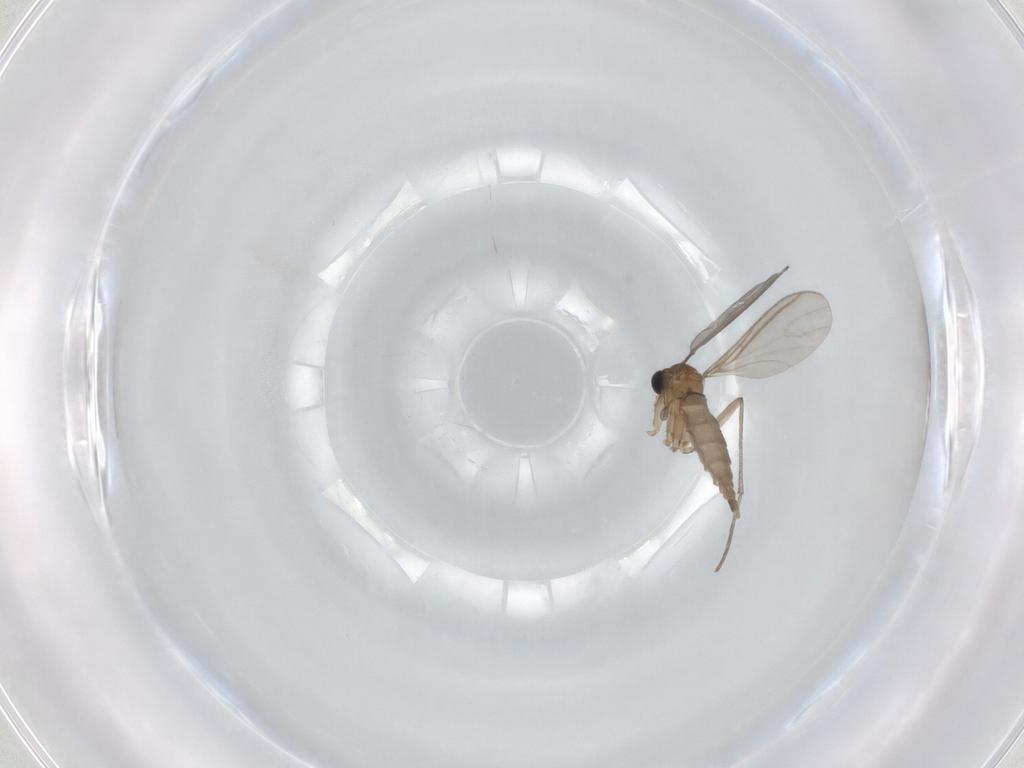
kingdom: Animalia
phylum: Arthropoda
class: Insecta
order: Diptera
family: Sciaridae
